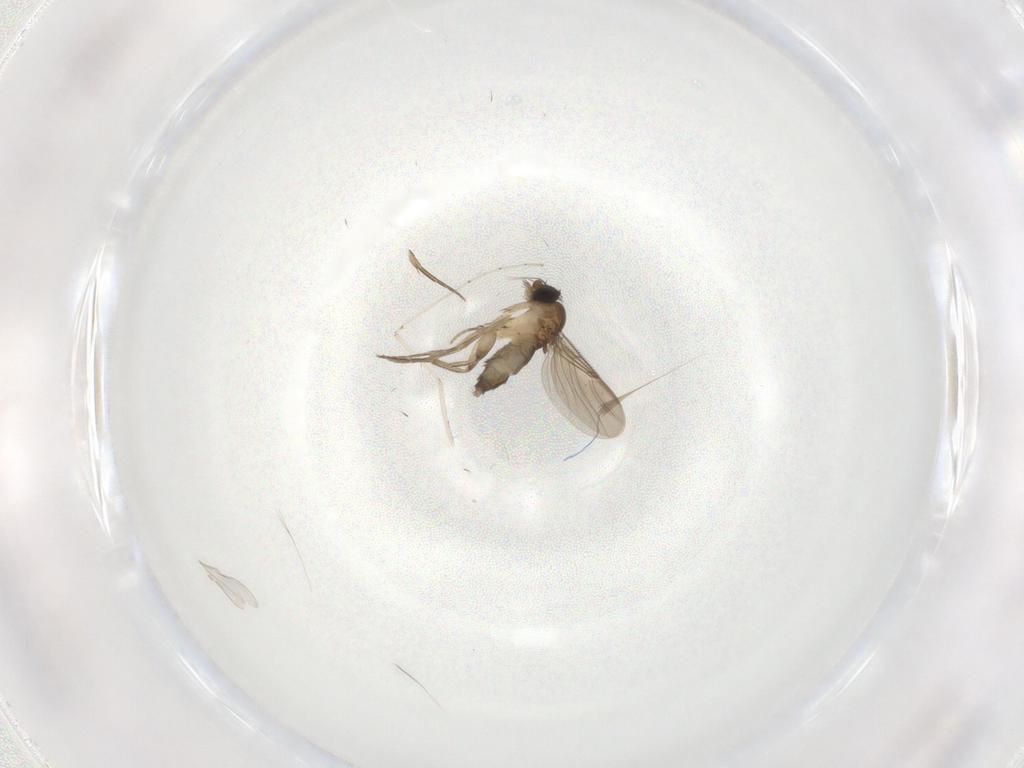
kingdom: Animalia
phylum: Arthropoda
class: Insecta
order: Diptera
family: Phoridae
